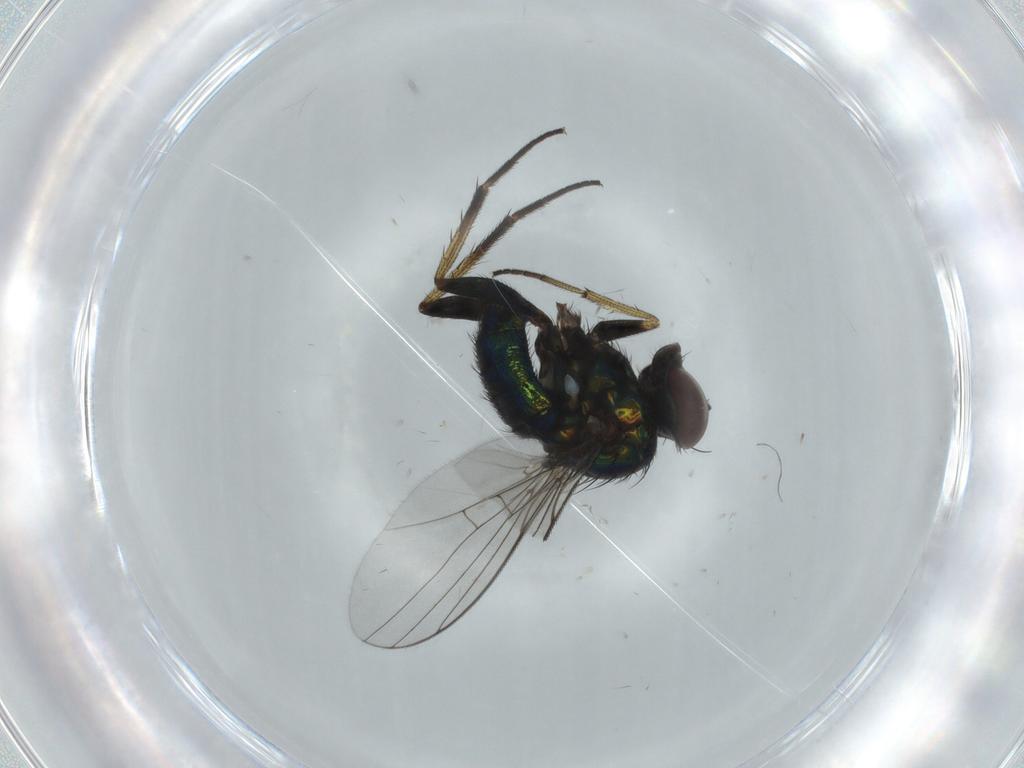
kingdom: Animalia
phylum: Arthropoda
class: Insecta
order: Diptera
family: Dolichopodidae
